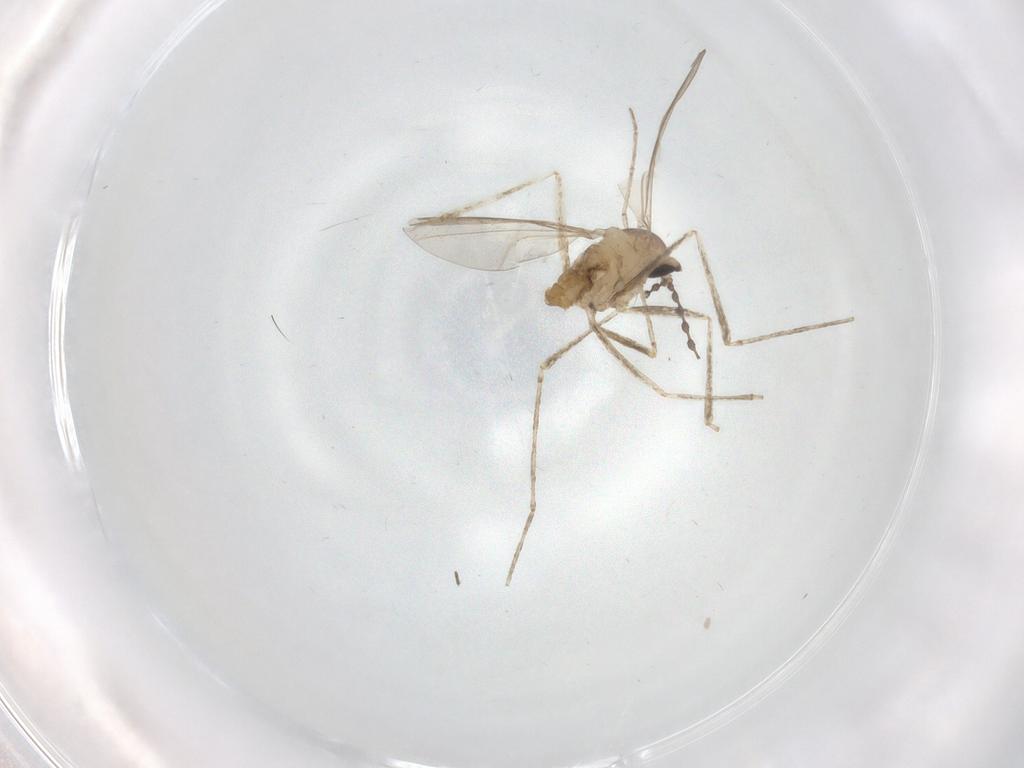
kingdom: Animalia
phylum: Arthropoda
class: Insecta
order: Diptera
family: Cecidomyiidae
